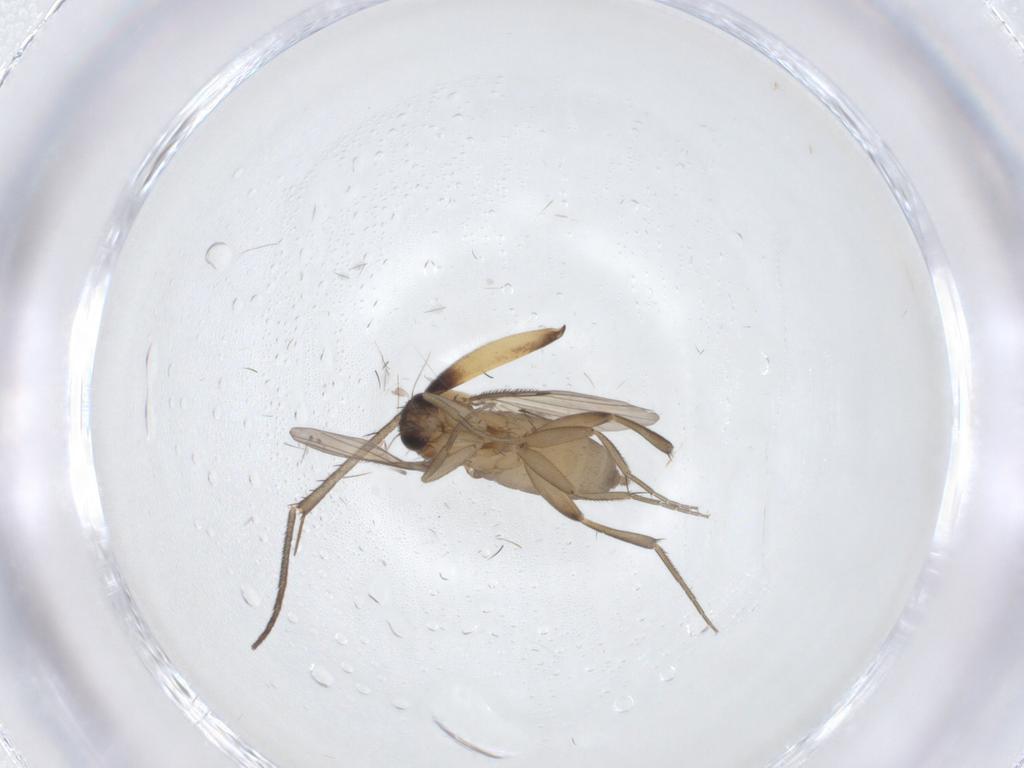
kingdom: Animalia
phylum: Arthropoda
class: Insecta
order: Diptera
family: Phoridae
